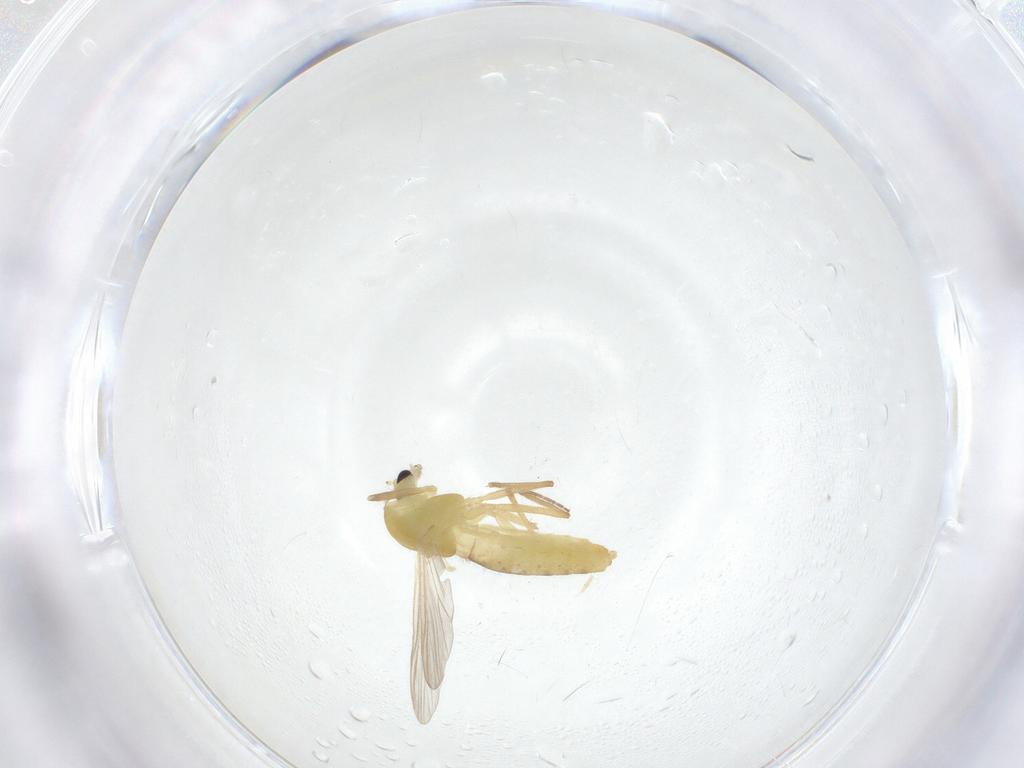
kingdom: Animalia
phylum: Arthropoda
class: Insecta
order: Diptera
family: Chironomidae
